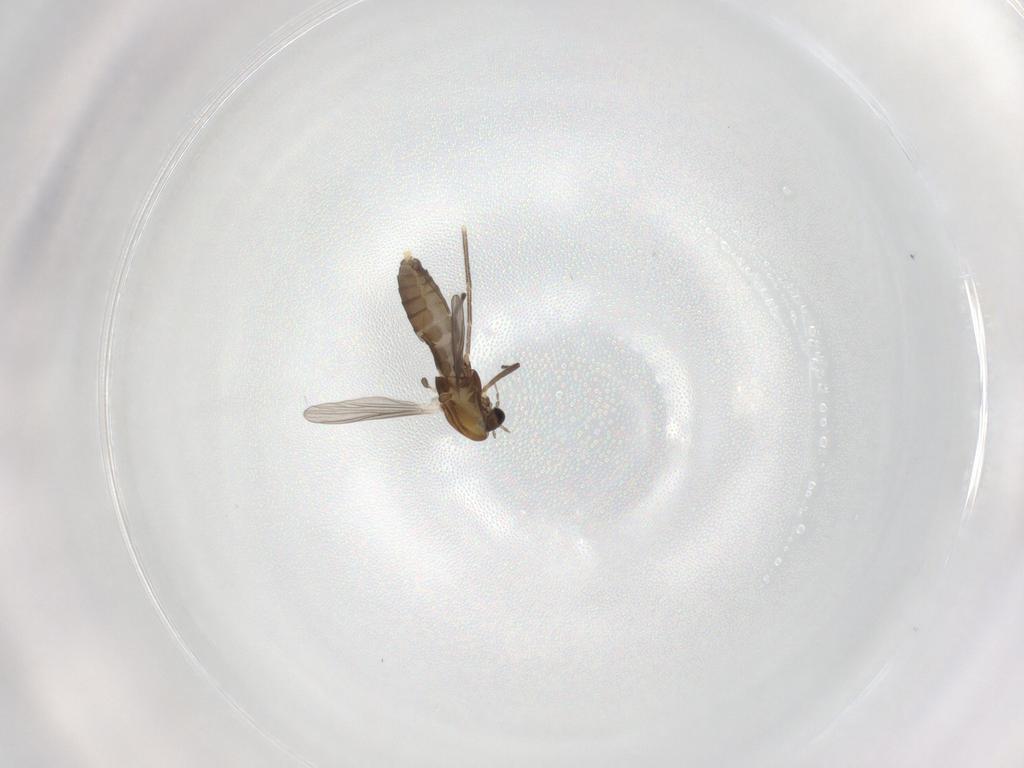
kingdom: Animalia
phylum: Arthropoda
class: Insecta
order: Diptera
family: Chironomidae
